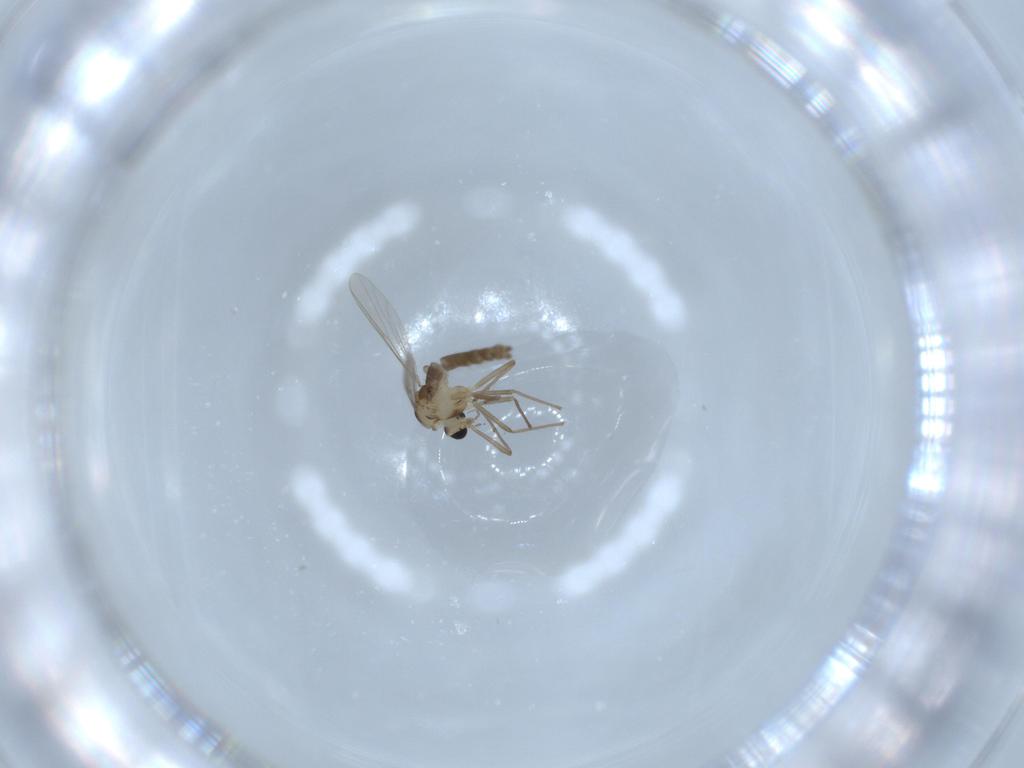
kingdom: Animalia
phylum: Arthropoda
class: Insecta
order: Diptera
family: Chironomidae
